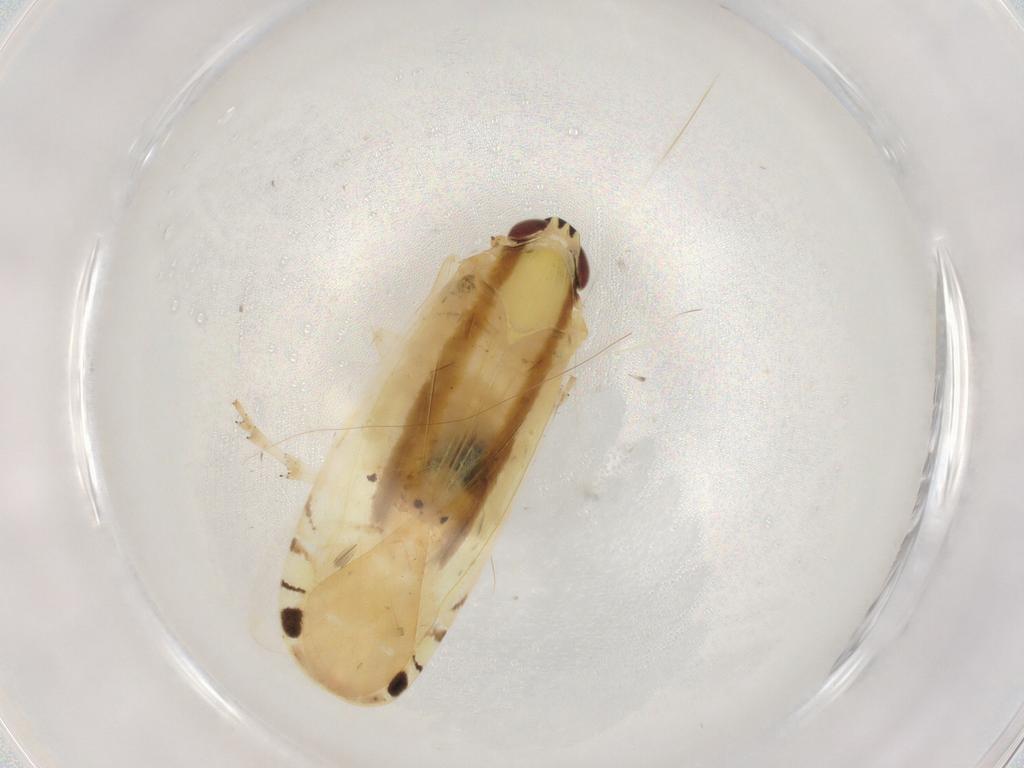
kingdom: Animalia
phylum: Arthropoda
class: Insecta
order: Hemiptera
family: Achilidae
